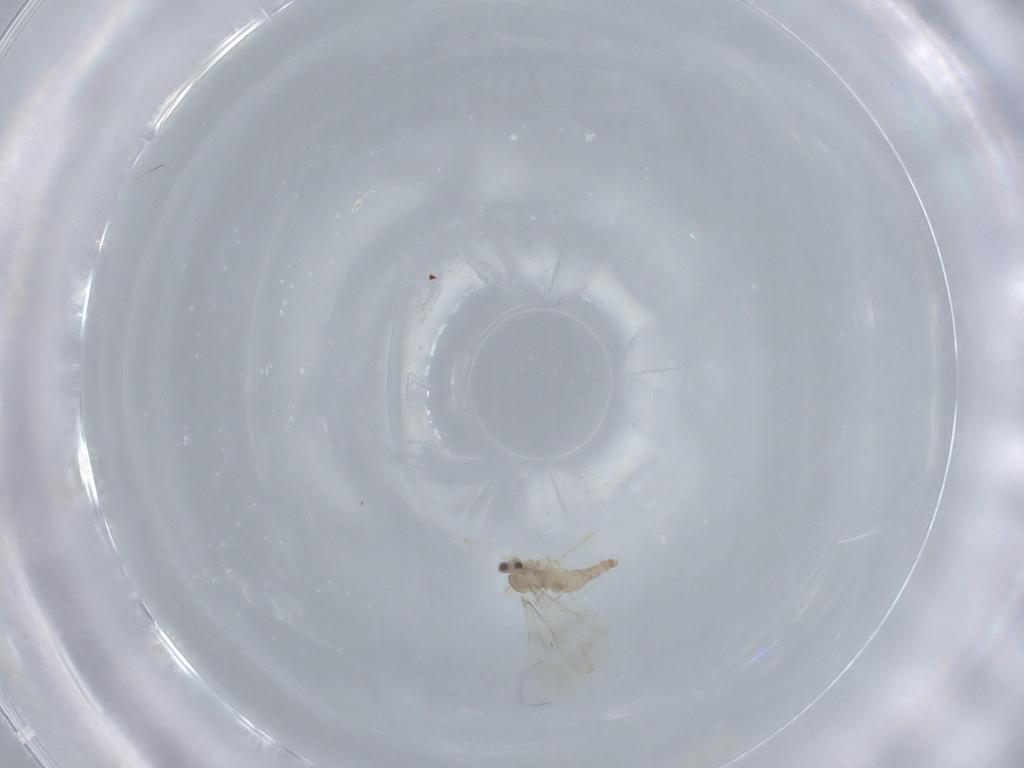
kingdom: Animalia
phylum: Arthropoda
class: Insecta
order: Diptera
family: Cecidomyiidae
